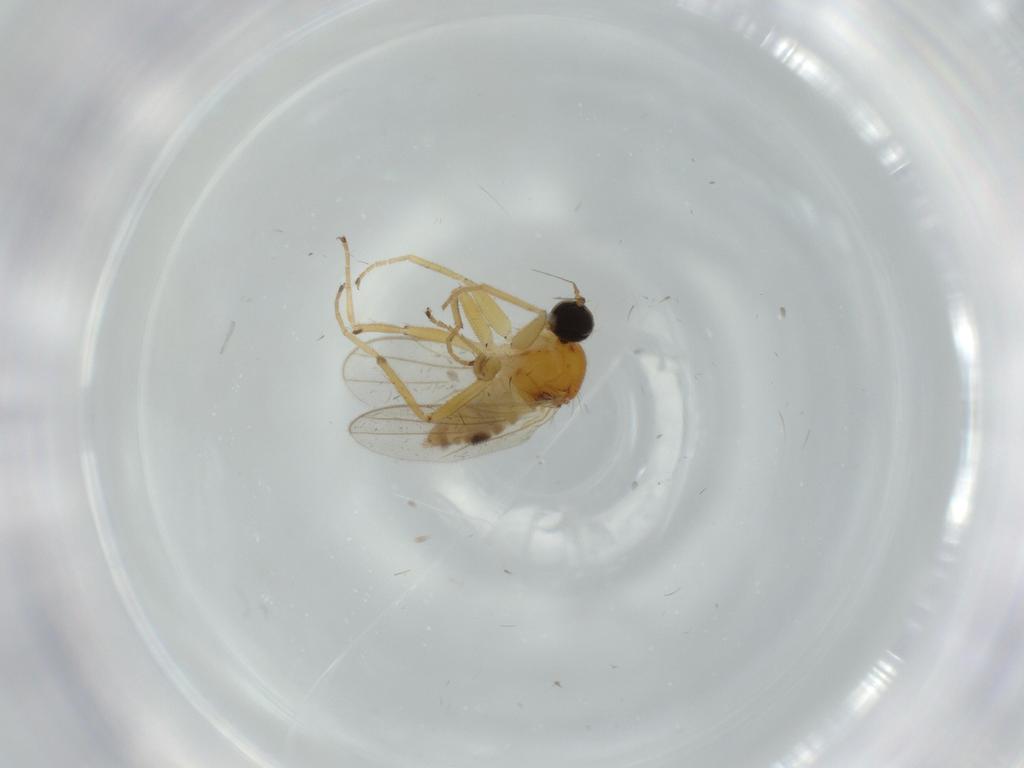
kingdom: Animalia
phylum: Arthropoda
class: Insecta
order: Diptera
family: Hybotidae
